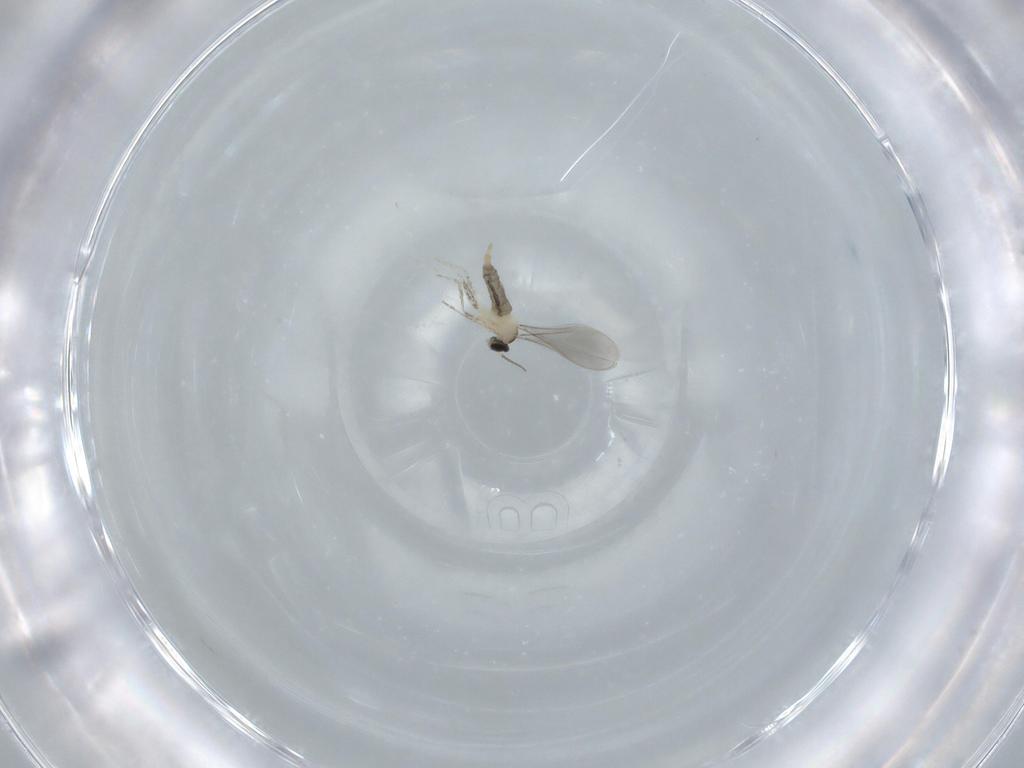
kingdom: Animalia
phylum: Arthropoda
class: Insecta
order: Diptera
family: Cecidomyiidae
